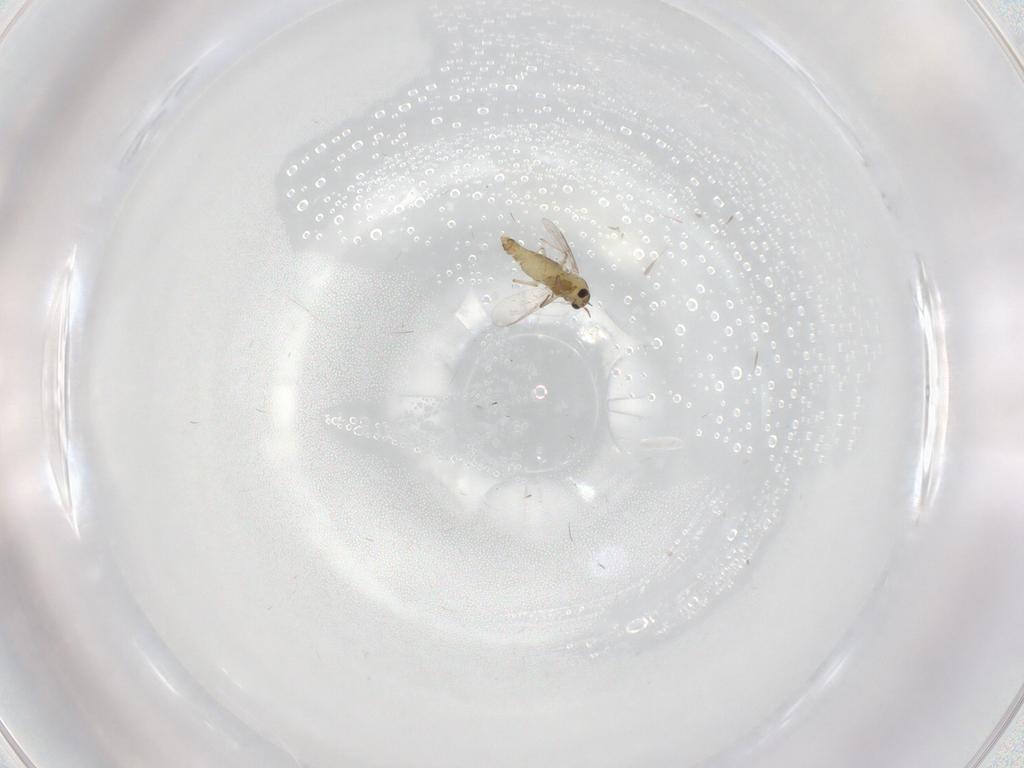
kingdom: Animalia
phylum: Arthropoda
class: Insecta
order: Diptera
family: Chironomidae
